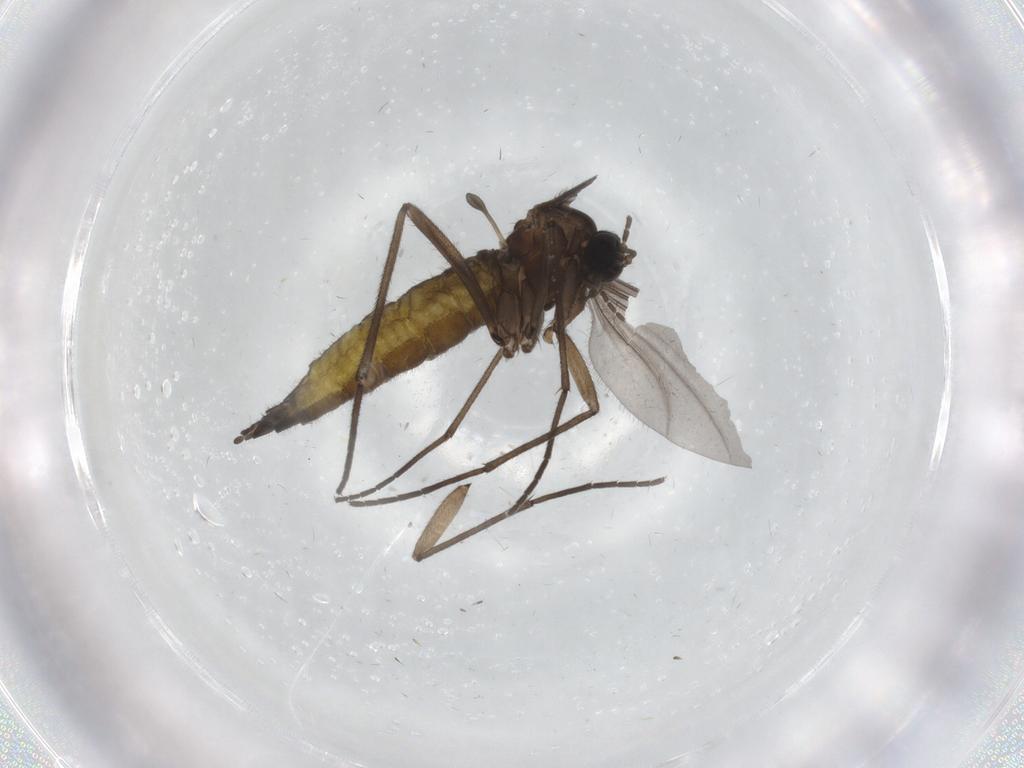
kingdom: Animalia
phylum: Arthropoda
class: Insecta
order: Diptera
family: Sciaridae
